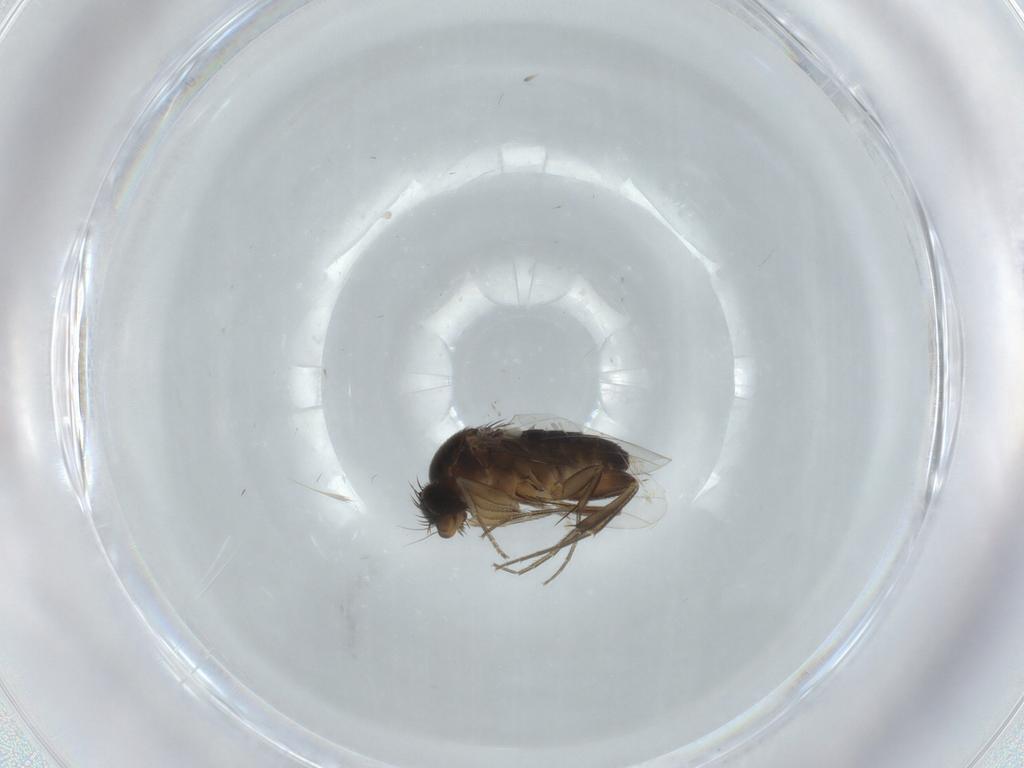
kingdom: Animalia
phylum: Arthropoda
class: Insecta
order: Diptera
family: Phoridae
